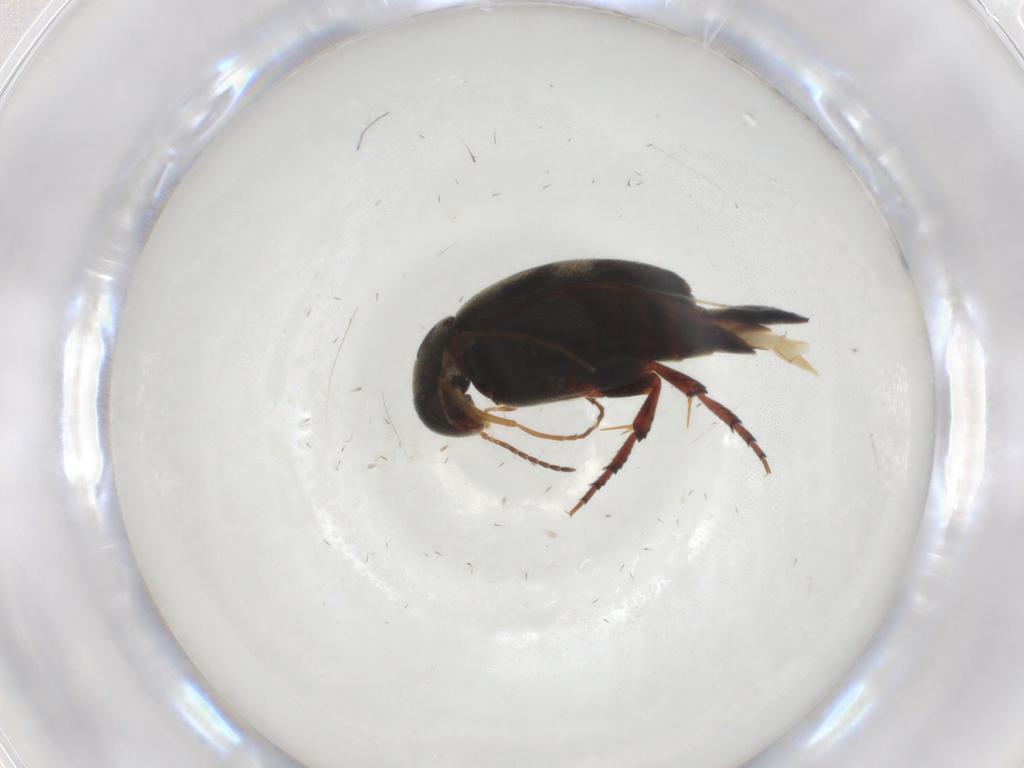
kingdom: Animalia
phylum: Arthropoda
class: Insecta
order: Coleoptera
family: Mordellidae
